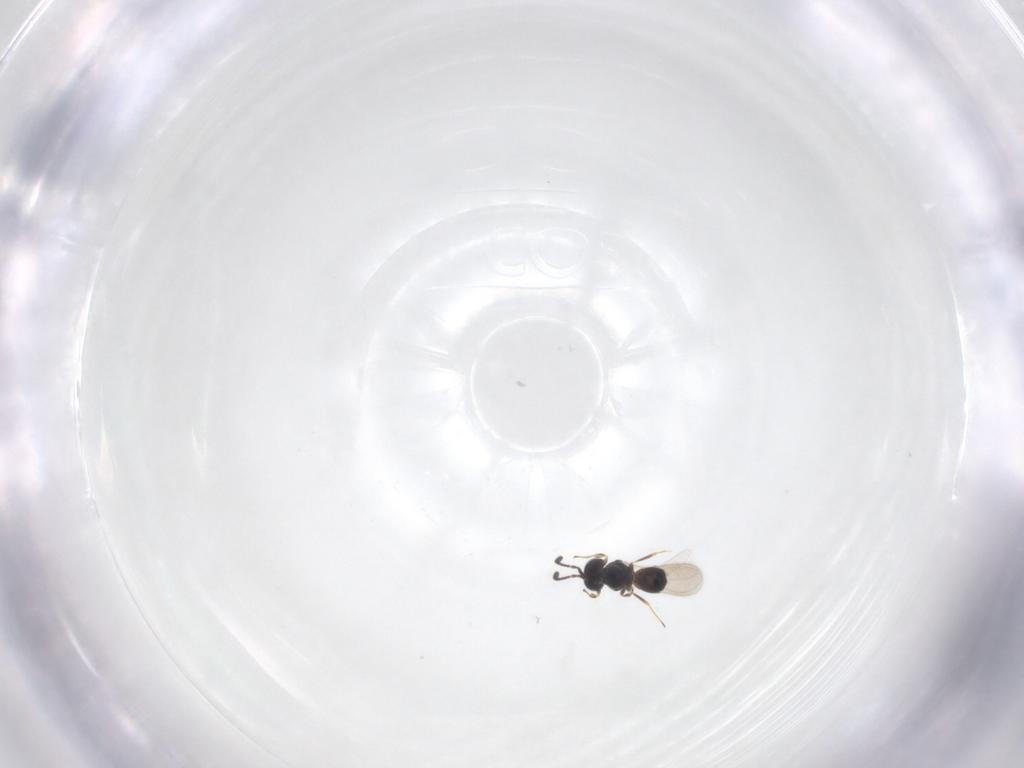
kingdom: Animalia
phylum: Arthropoda
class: Insecta
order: Hymenoptera
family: Scelionidae
